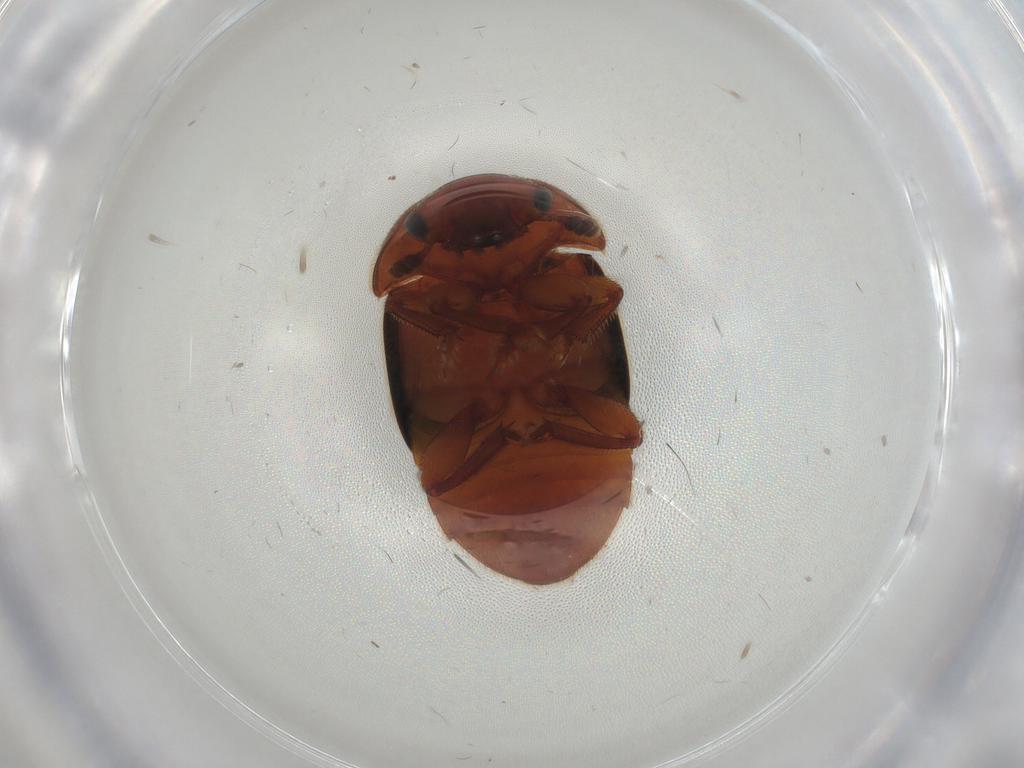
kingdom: Animalia
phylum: Arthropoda
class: Insecta
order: Coleoptera
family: Nitidulidae
